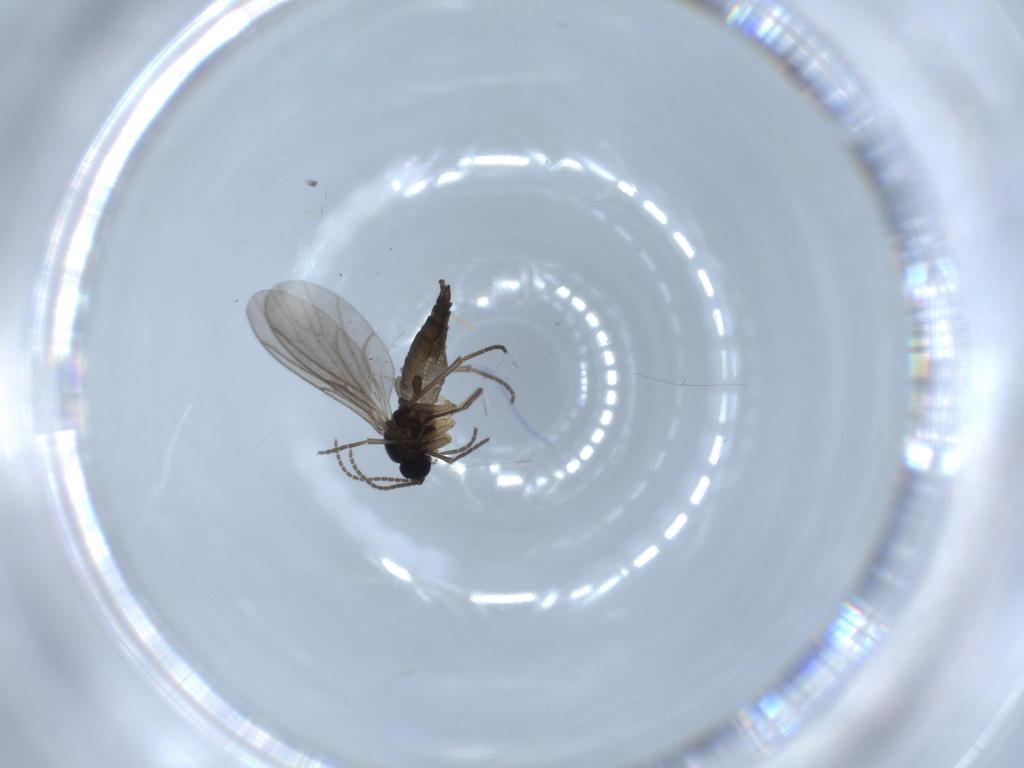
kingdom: Animalia
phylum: Arthropoda
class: Insecta
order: Diptera
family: Sciaridae
